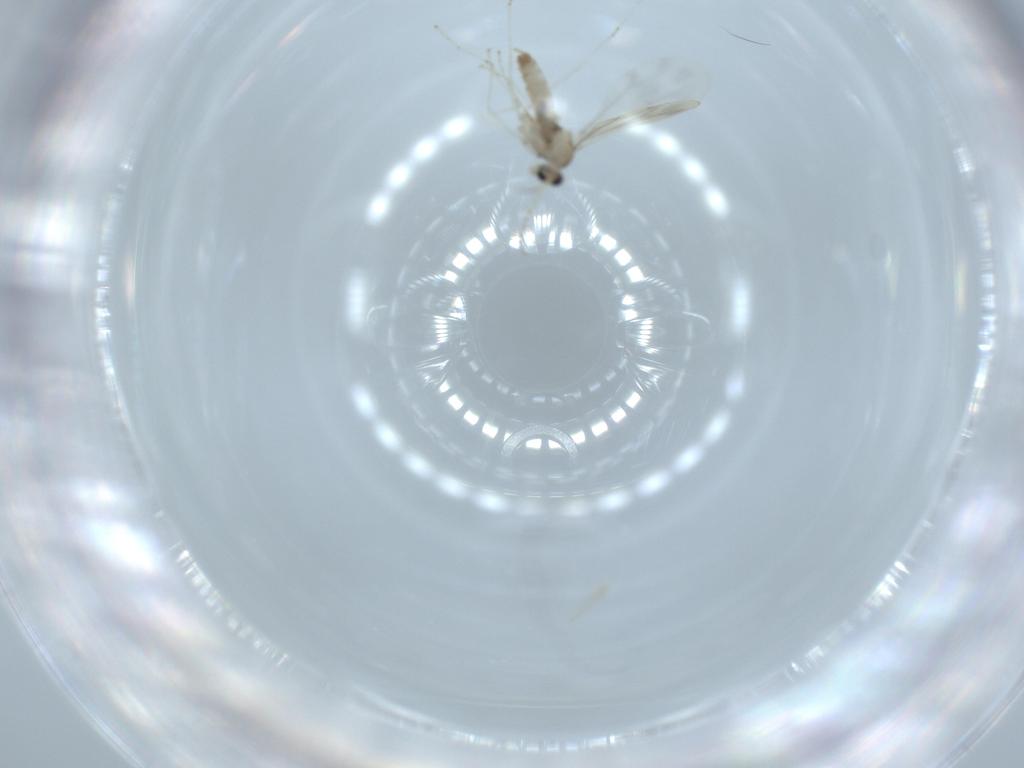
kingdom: Animalia
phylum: Arthropoda
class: Insecta
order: Diptera
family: Cecidomyiidae
